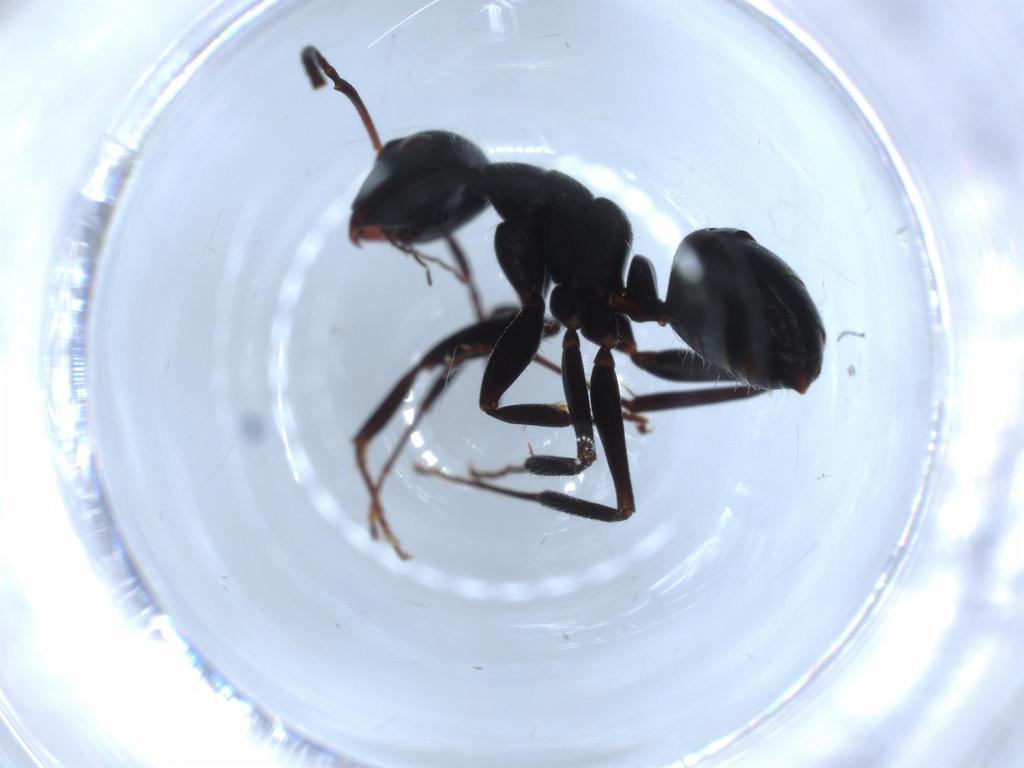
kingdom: Animalia
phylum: Arthropoda
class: Insecta
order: Hymenoptera
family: Formicidae
